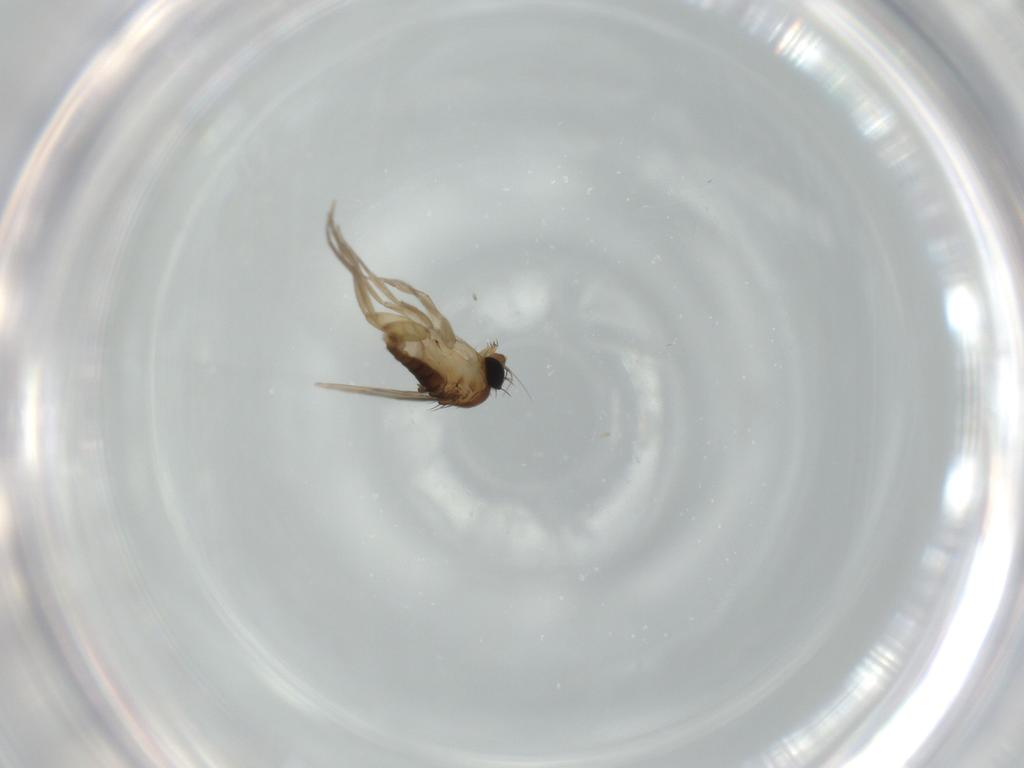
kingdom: Animalia
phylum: Arthropoda
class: Insecta
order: Diptera
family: Phoridae
